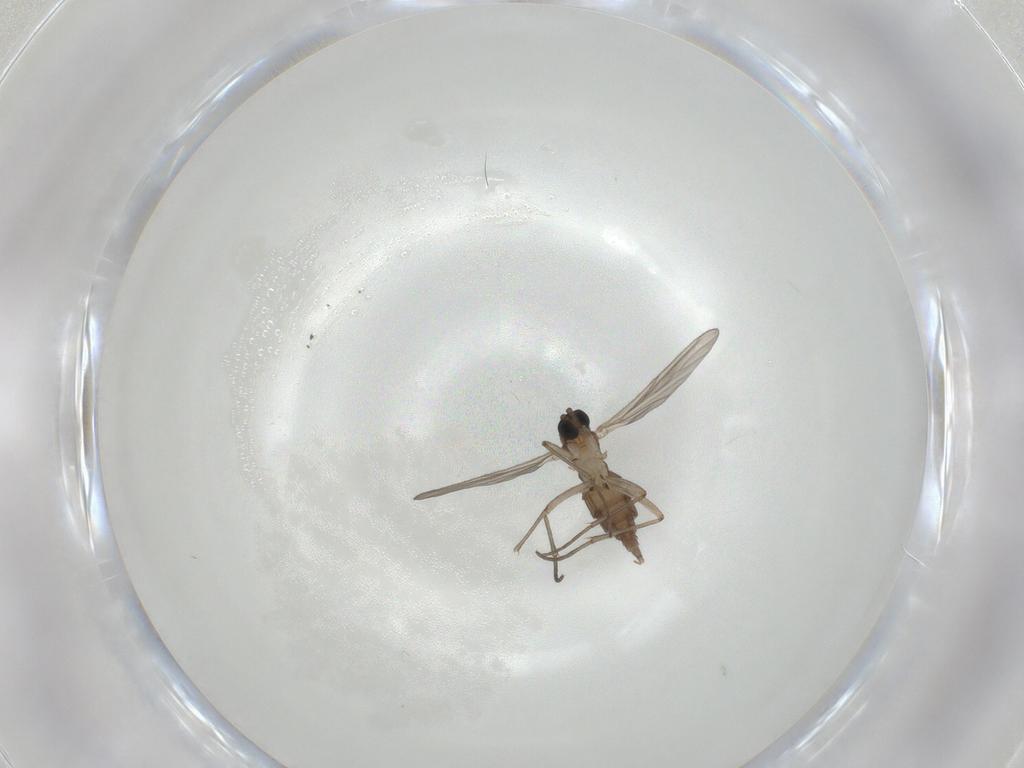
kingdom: Animalia
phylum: Arthropoda
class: Insecta
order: Diptera
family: Sciaridae
